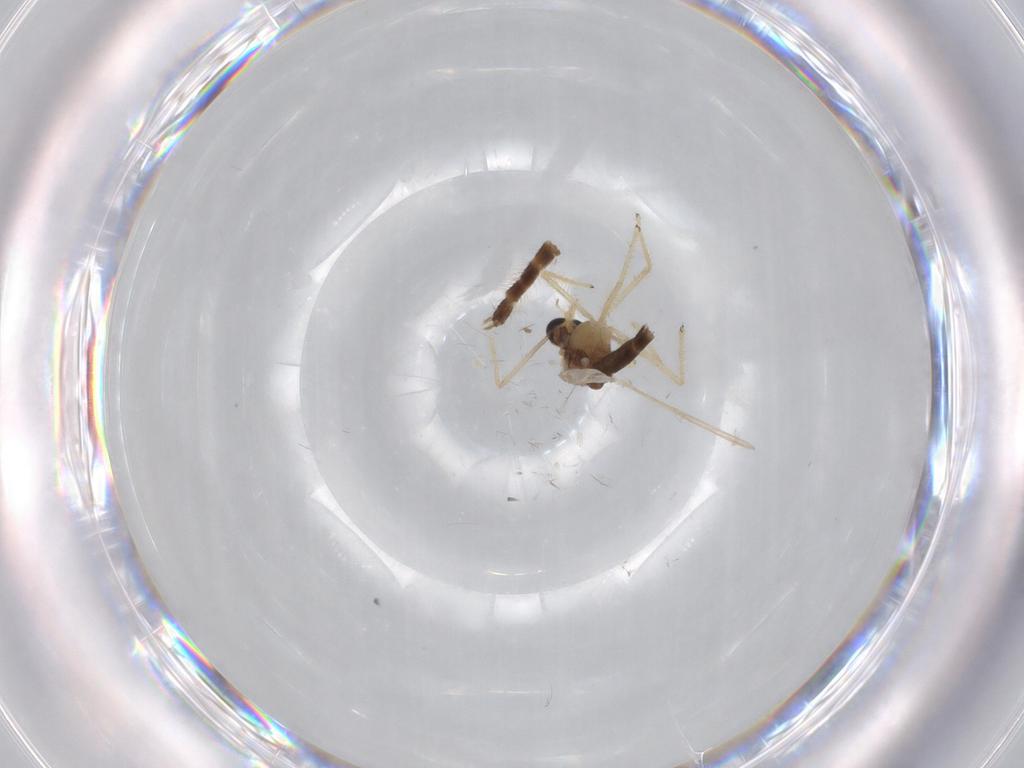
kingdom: Animalia
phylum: Arthropoda
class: Insecta
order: Diptera
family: Chironomidae
